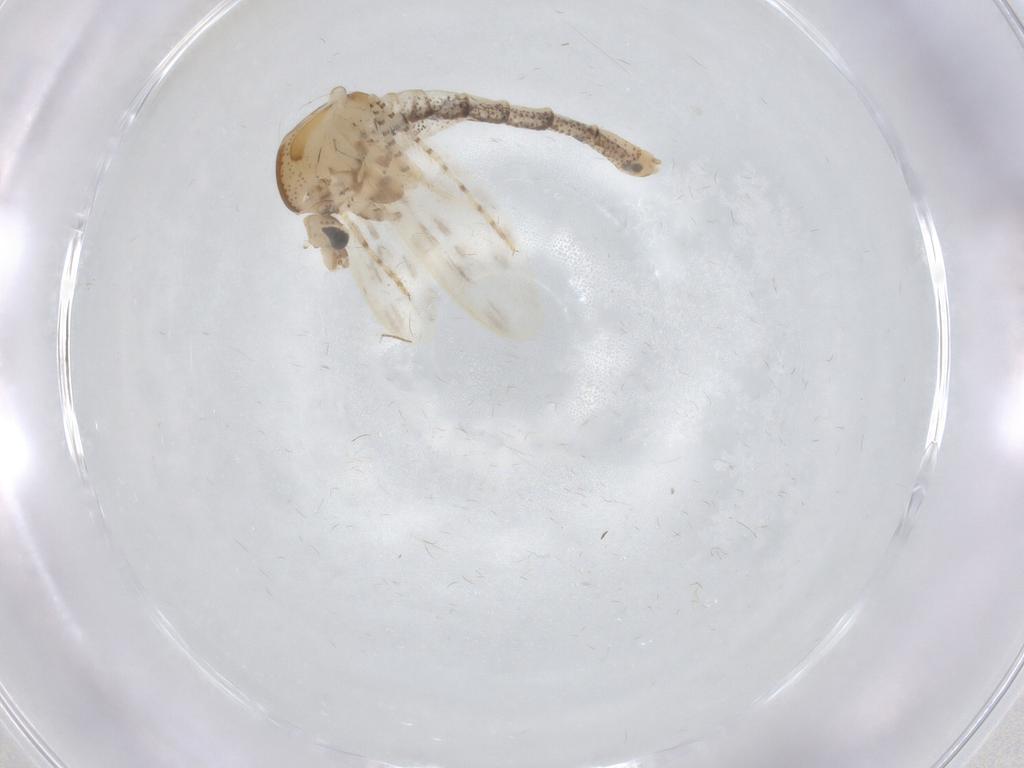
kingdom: Animalia
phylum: Arthropoda
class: Insecta
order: Diptera
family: Chaoboridae
